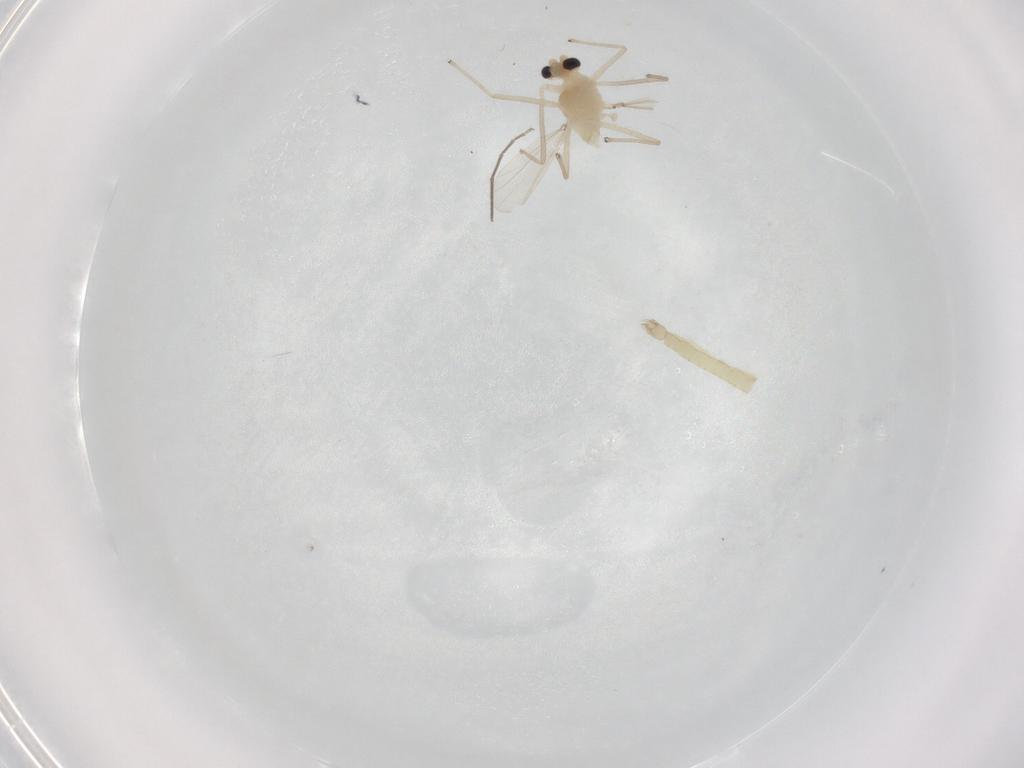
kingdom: Animalia
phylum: Arthropoda
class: Insecta
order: Diptera
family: Chironomidae
